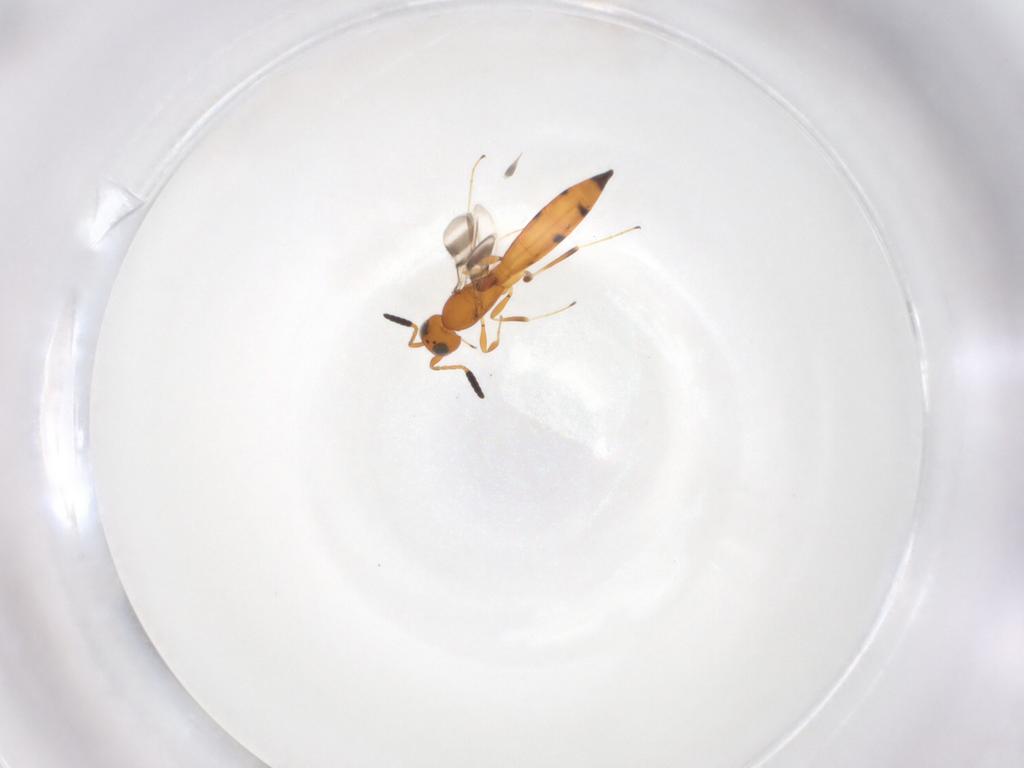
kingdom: Animalia
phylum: Arthropoda
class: Insecta
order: Hymenoptera
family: Scelionidae
